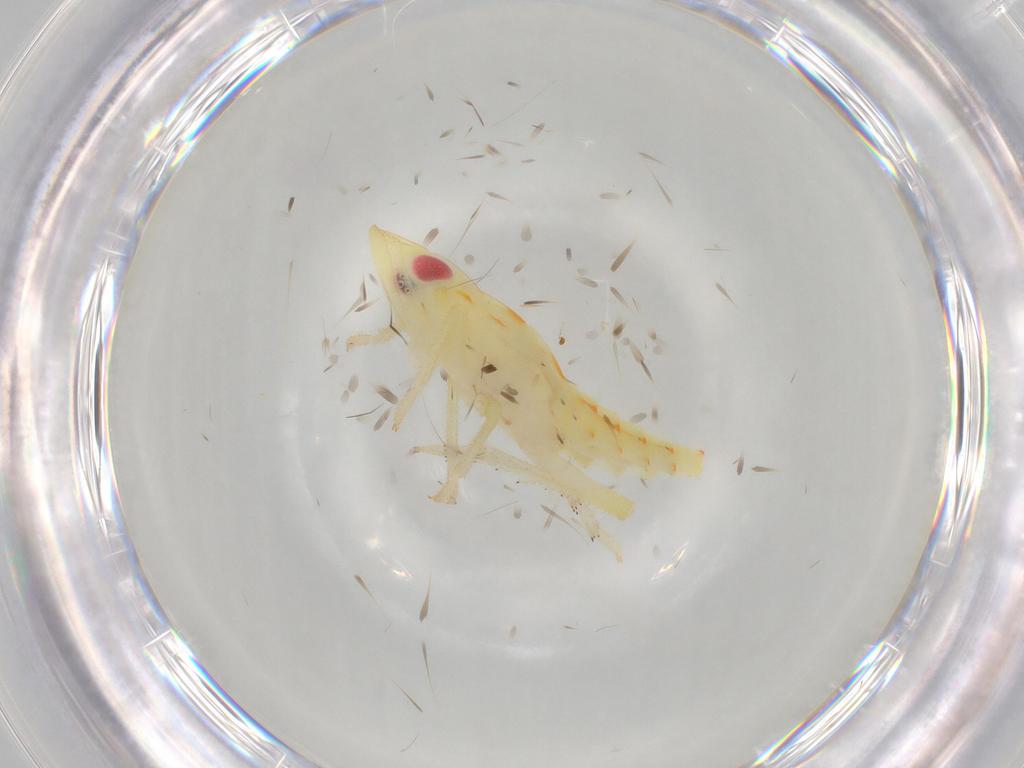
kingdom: Animalia
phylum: Arthropoda
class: Insecta
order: Hemiptera
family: Tropiduchidae
